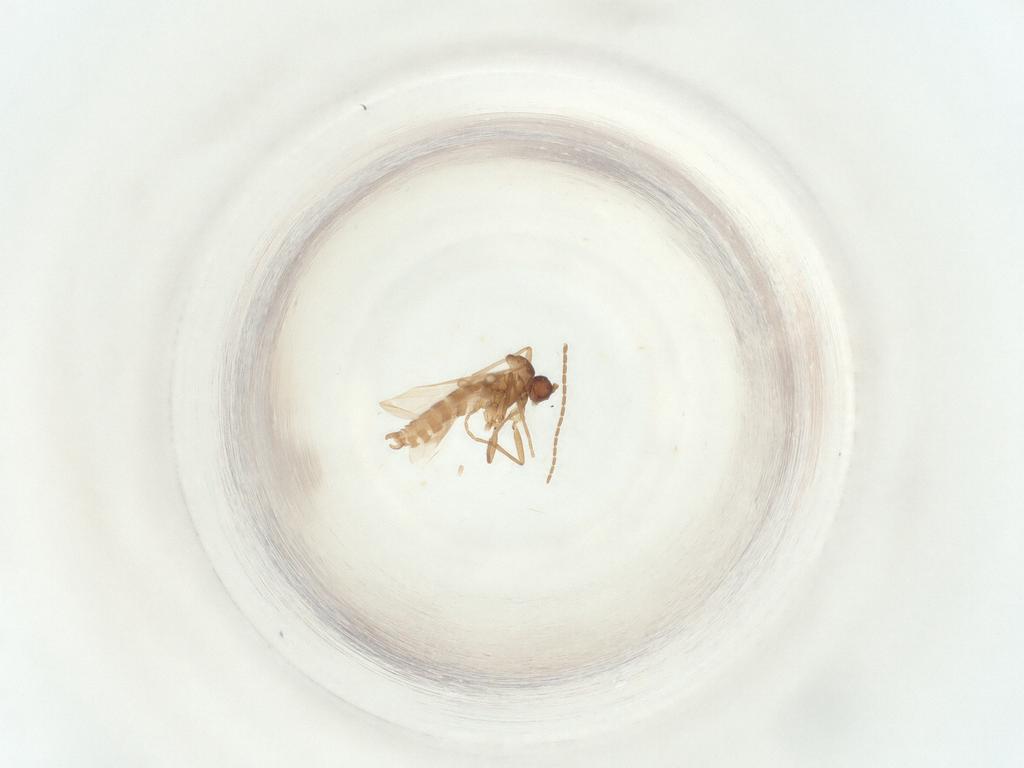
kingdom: Animalia
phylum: Arthropoda
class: Insecta
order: Diptera
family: Sciaridae
